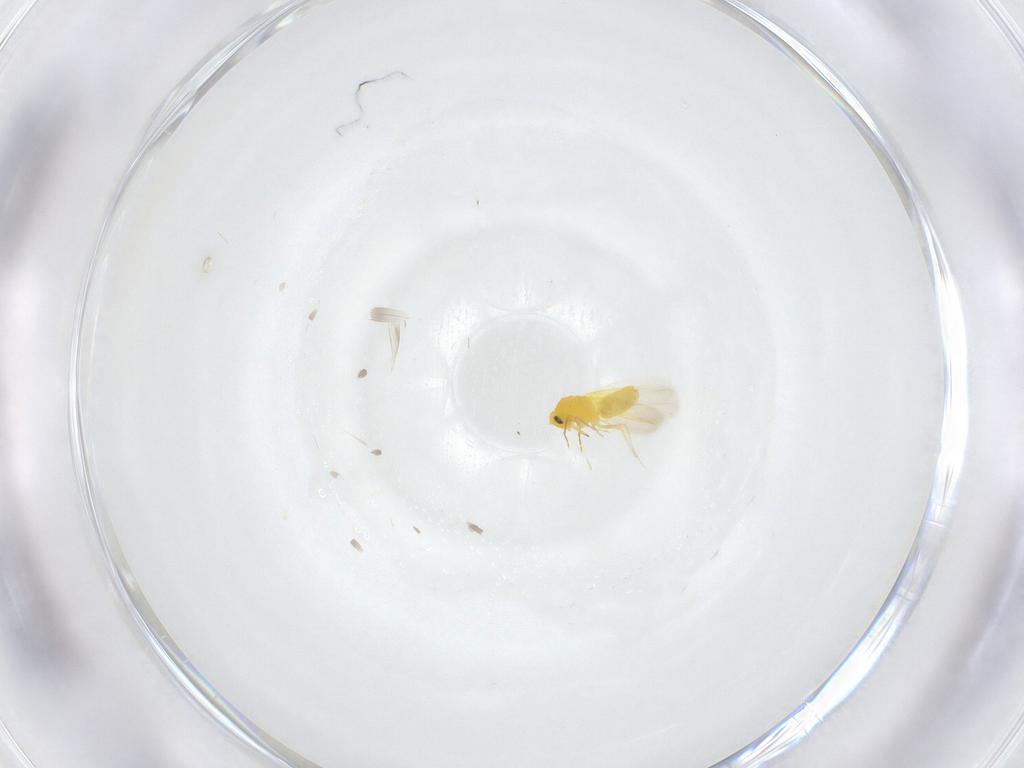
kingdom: Animalia
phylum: Arthropoda
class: Insecta
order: Hemiptera
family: Aleyrodidae
